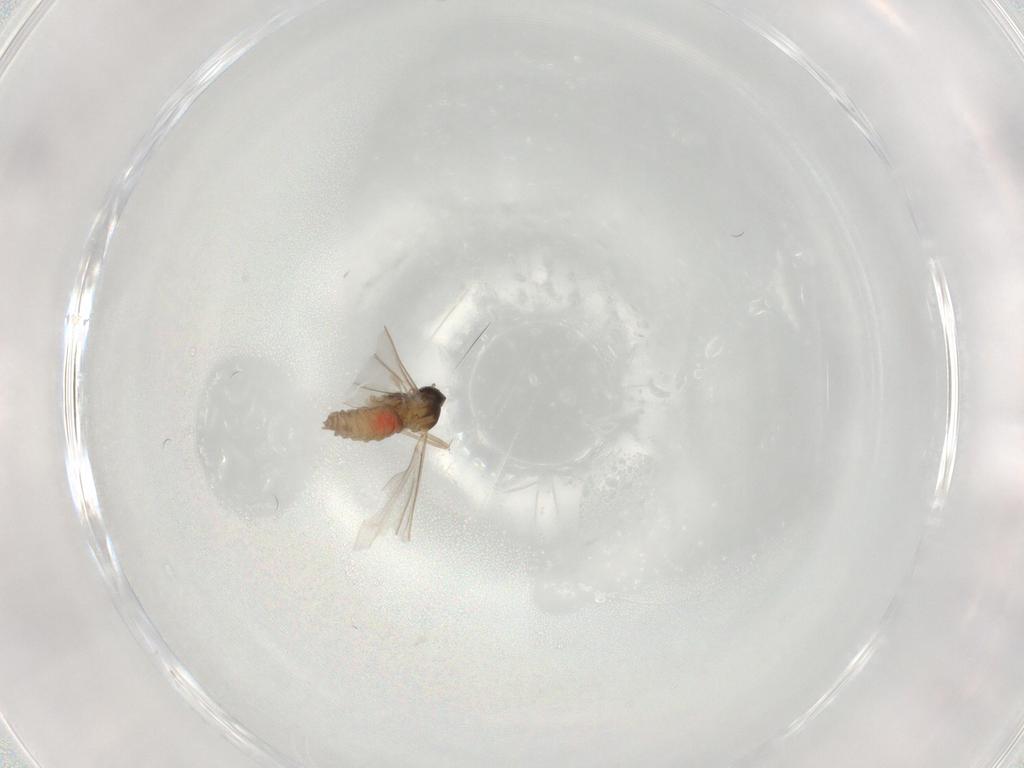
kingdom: Animalia
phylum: Arthropoda
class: Insecta
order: Diptera
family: Cecidomyiidae
